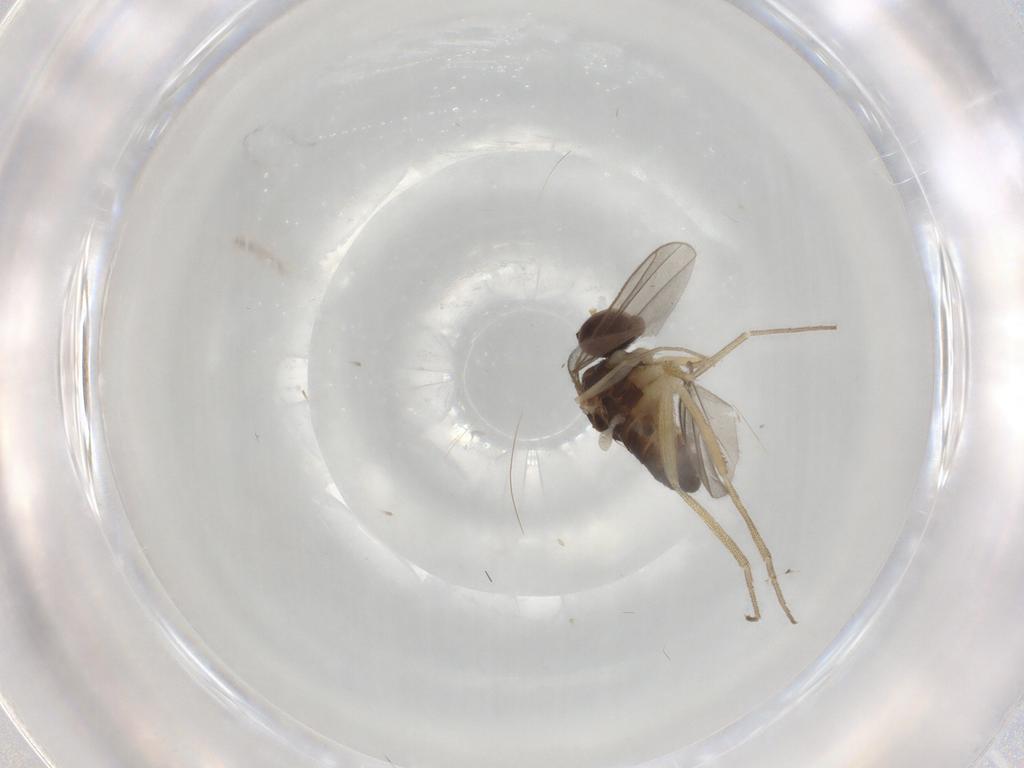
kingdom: Animalia
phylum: Arthropoda
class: Insecta
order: Diptera
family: Dolichopodidae
